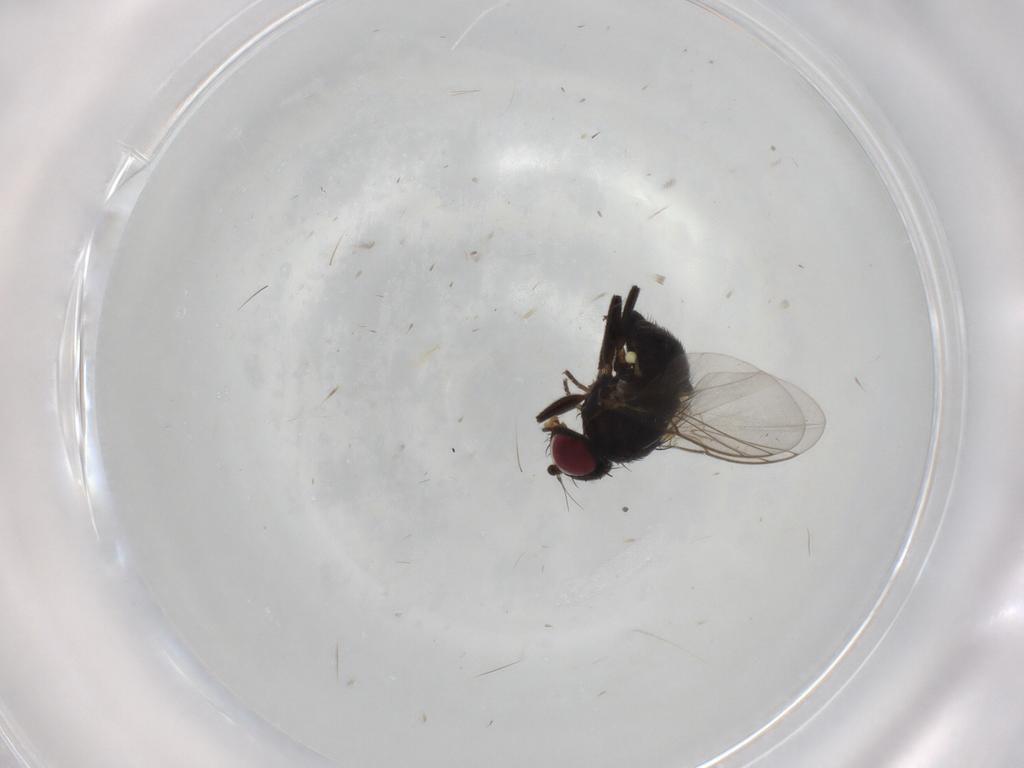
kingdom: Animalia
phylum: Arthropoda
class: Insecta
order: Diptera
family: Agromyzidae
